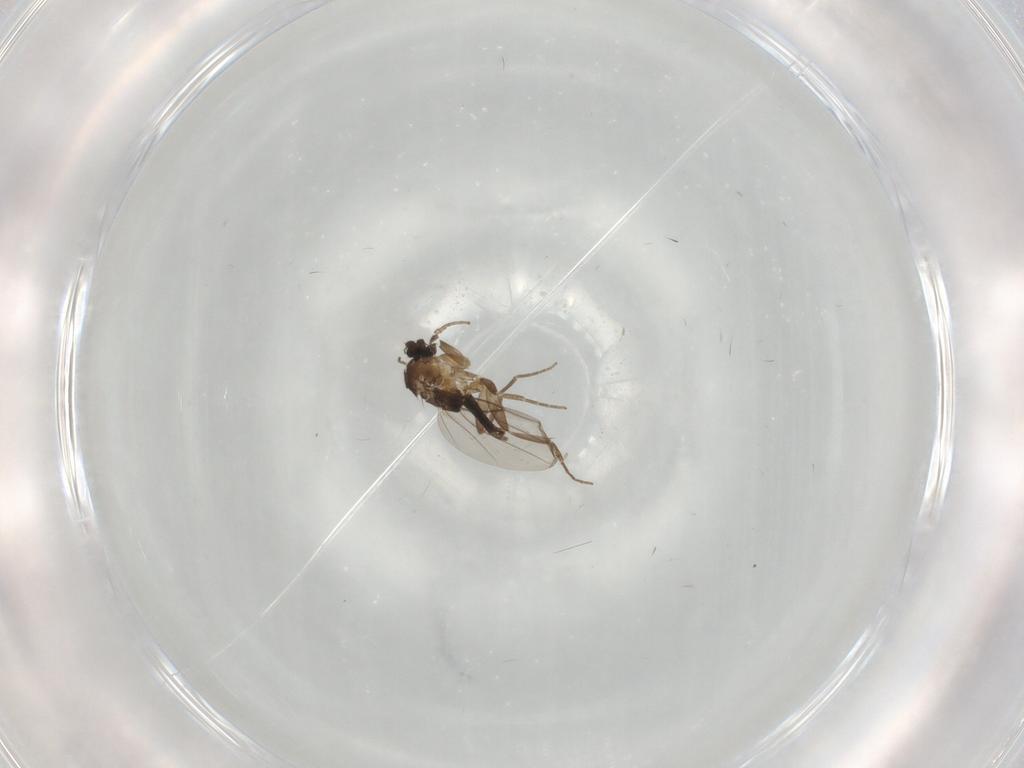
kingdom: Animalia
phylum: Arthropoda
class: Insecta
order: Diptera
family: Cecidomyiidae
